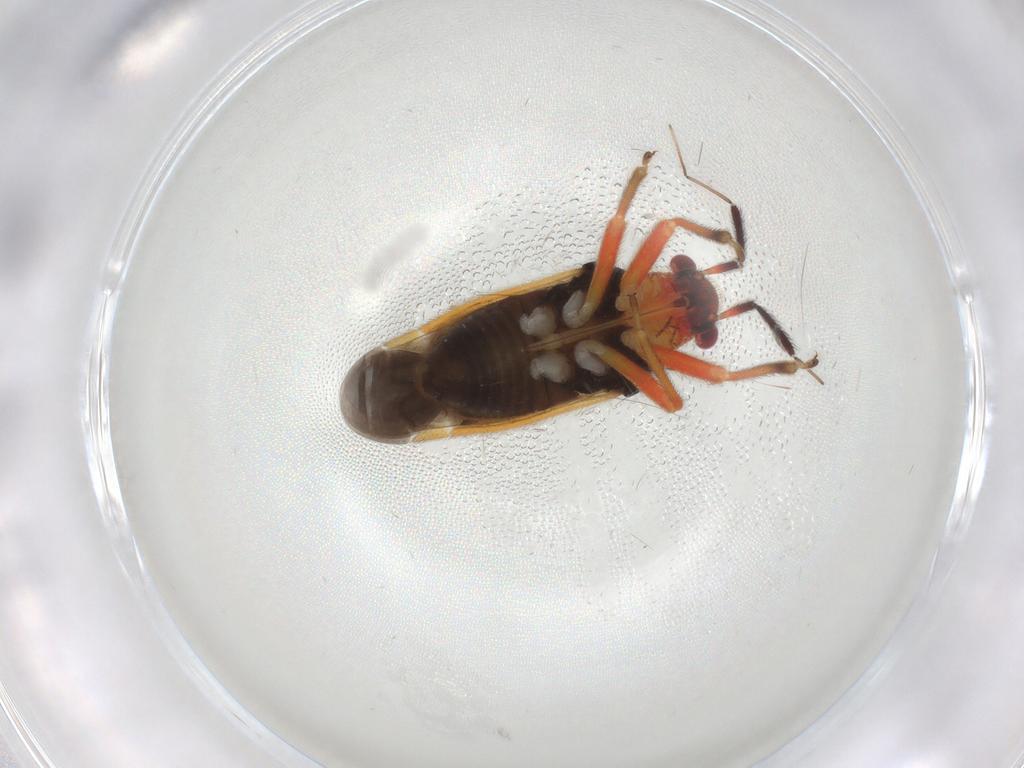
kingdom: Animalia
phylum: Arthropoda
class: Insecta
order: Hemiptera
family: Miridae
